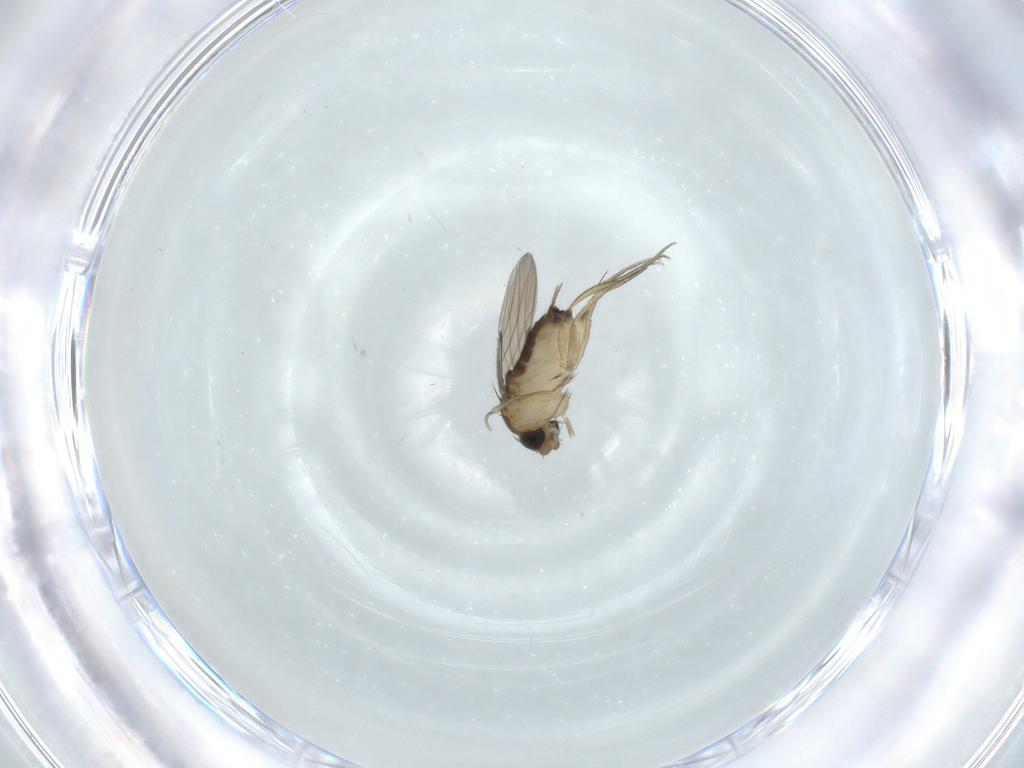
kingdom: Animalia
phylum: Arthropoda
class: Insecta
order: Diptera
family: Phoridae
